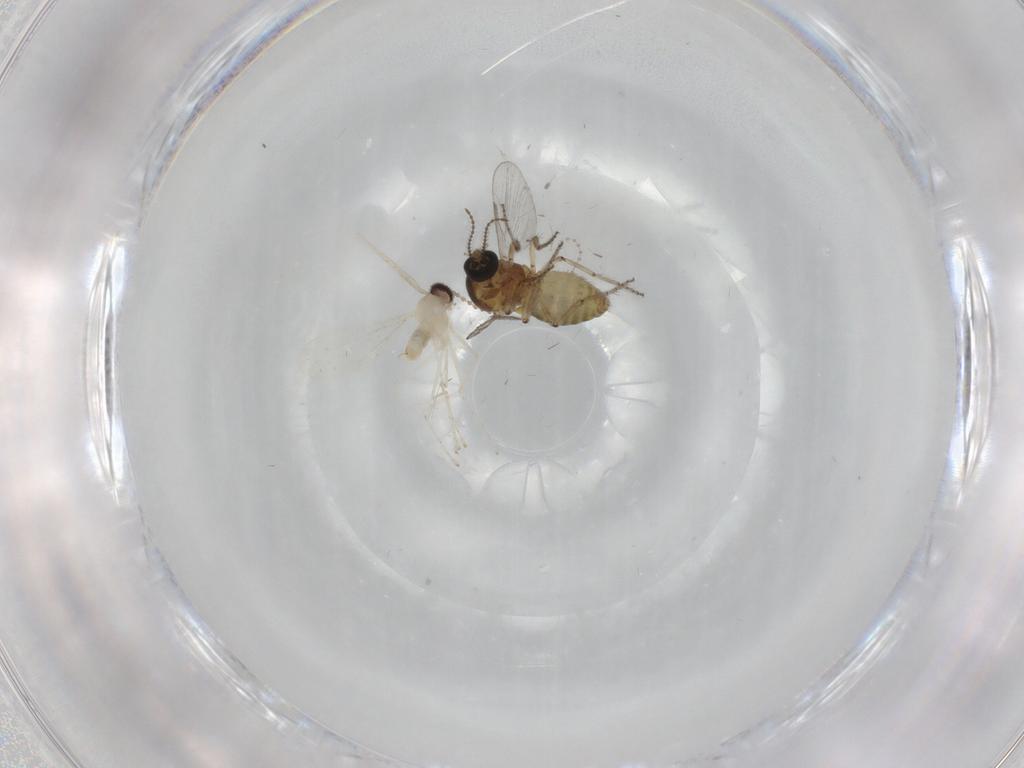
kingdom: Animalia
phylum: Arthropoda
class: Insecta
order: Diptera
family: Ceratopogonidae
